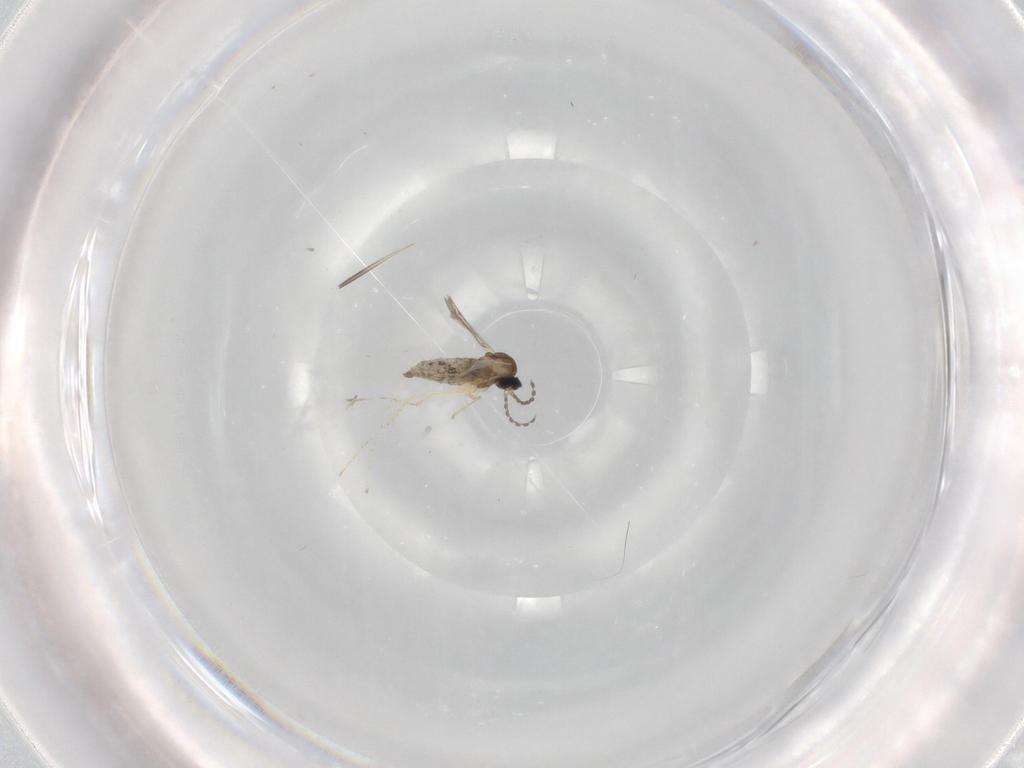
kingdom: Animalia
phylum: Arthropoda
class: Insecta
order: Diptera
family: Cecidomyiidae
